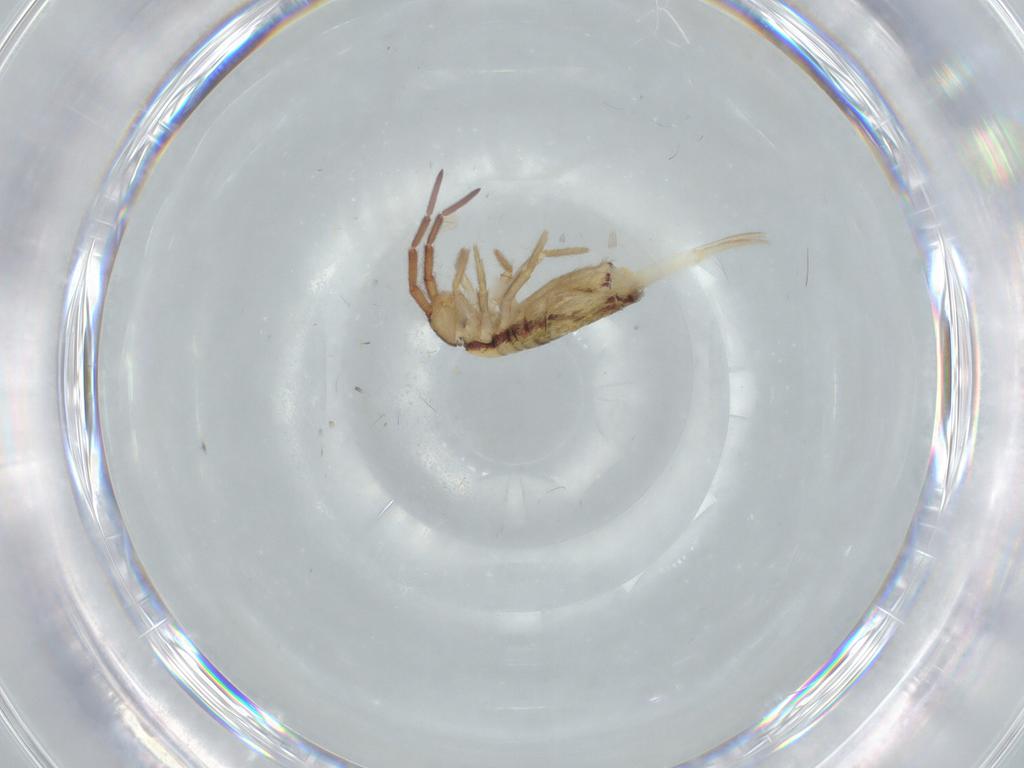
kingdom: Animalia
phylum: Arthropoda
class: Collembola
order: Entomobryomorpha
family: Entomobryidae
